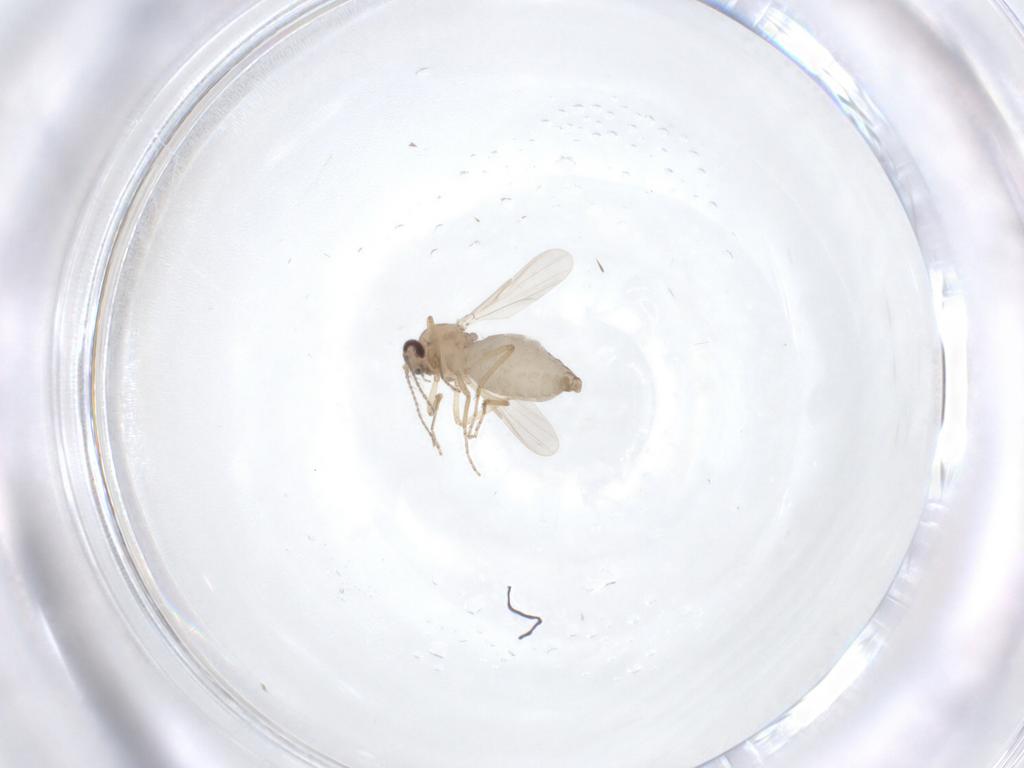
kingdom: Animalia
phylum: Arthropoda
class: Insecta
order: Diptera
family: Ceratopogonidae
